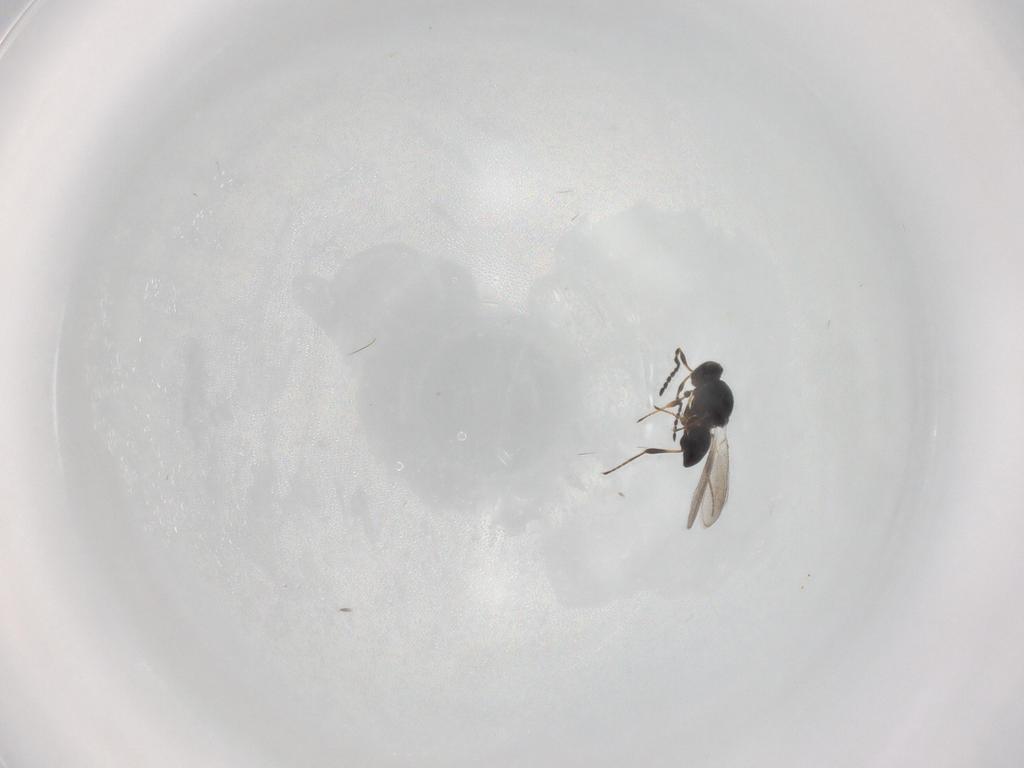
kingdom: Animalia
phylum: Arthropoda
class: Insecta
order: Hymenoptera
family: Platygastridae
